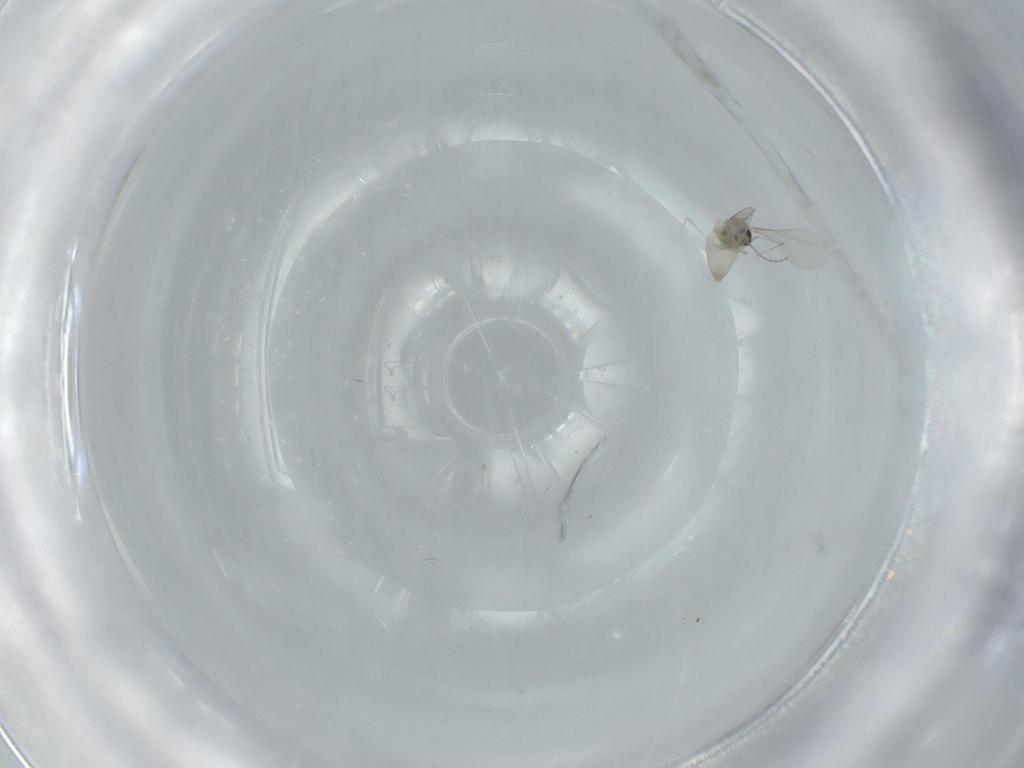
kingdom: Animalia
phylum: Arthropoda
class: Insecta
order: Diptera
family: Cecidomyiidae
